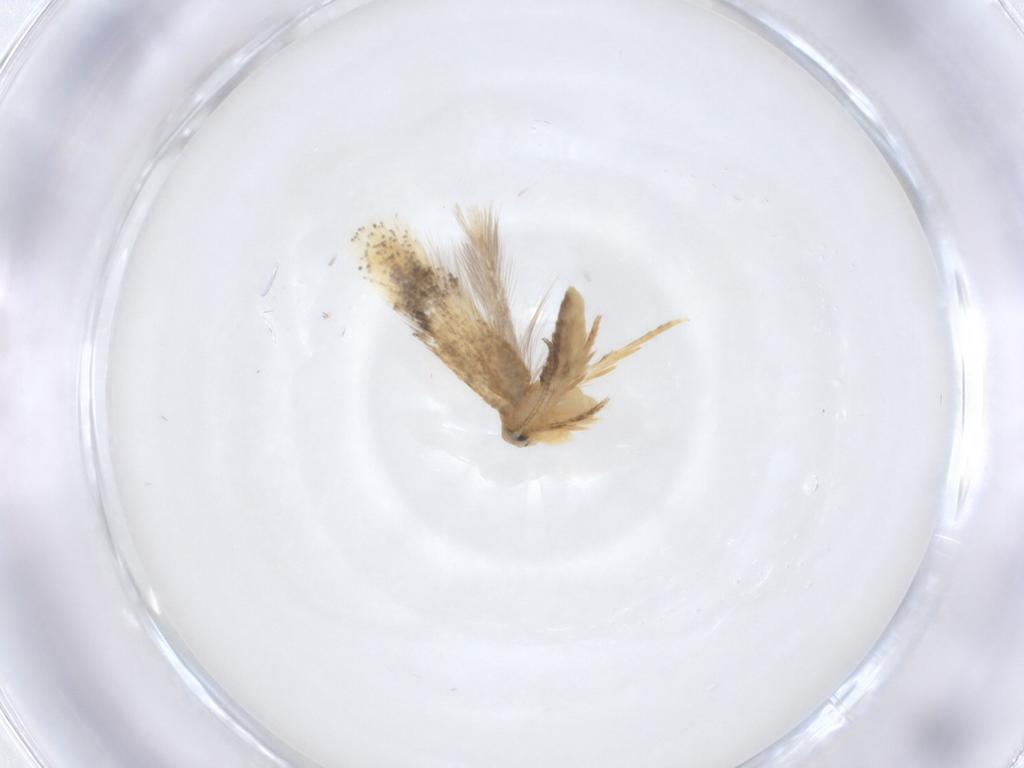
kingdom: Animalia
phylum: Arthropoda
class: Insecta
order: Lepidoptera
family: Nepticulidae
